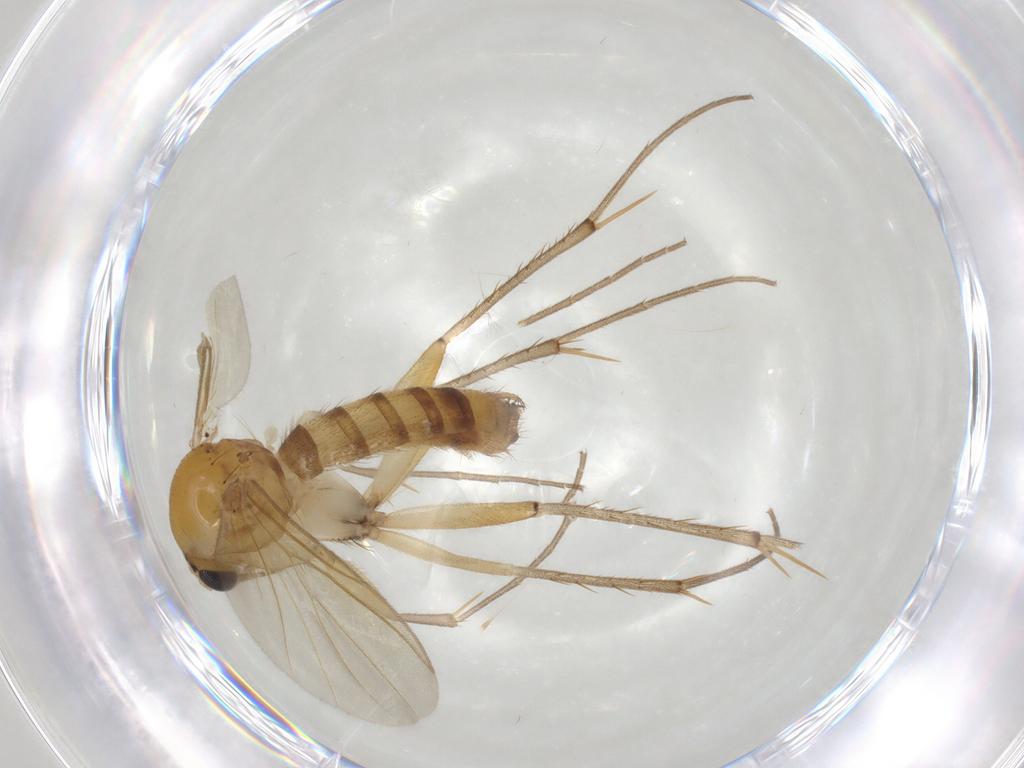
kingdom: Animalia
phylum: Arthropoda
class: Insecta
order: Diptera
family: Mycetophilidae
